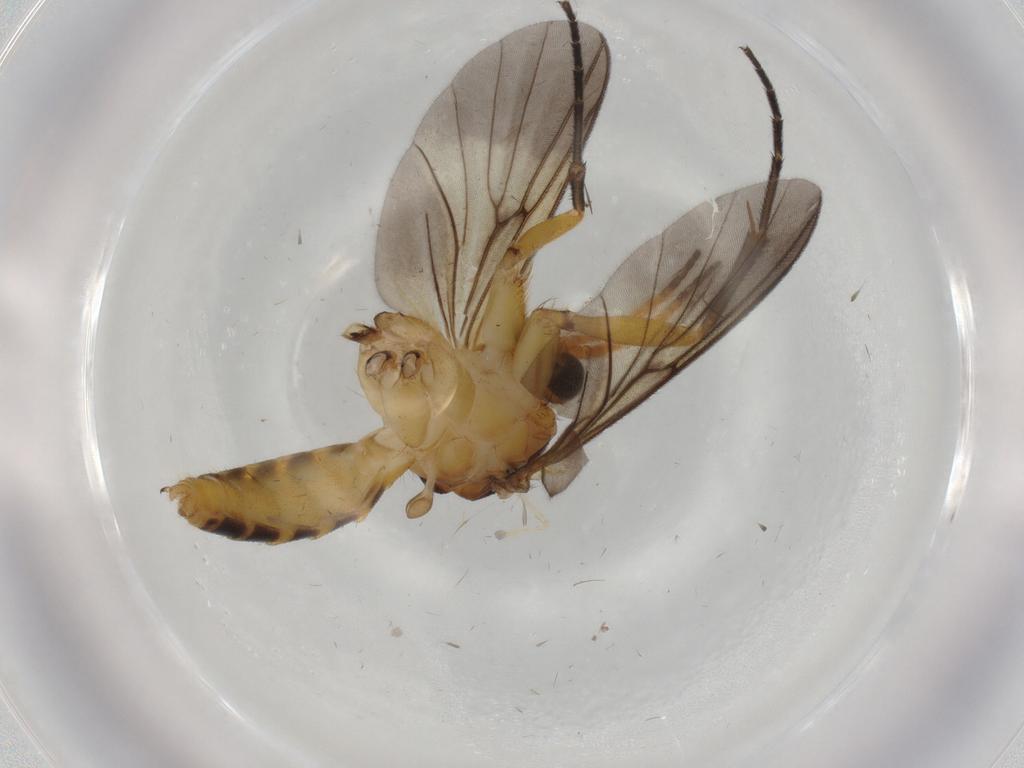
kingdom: Animalia
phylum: Arthropoda
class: Insecta
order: Diptera
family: Cecidomyiidae
